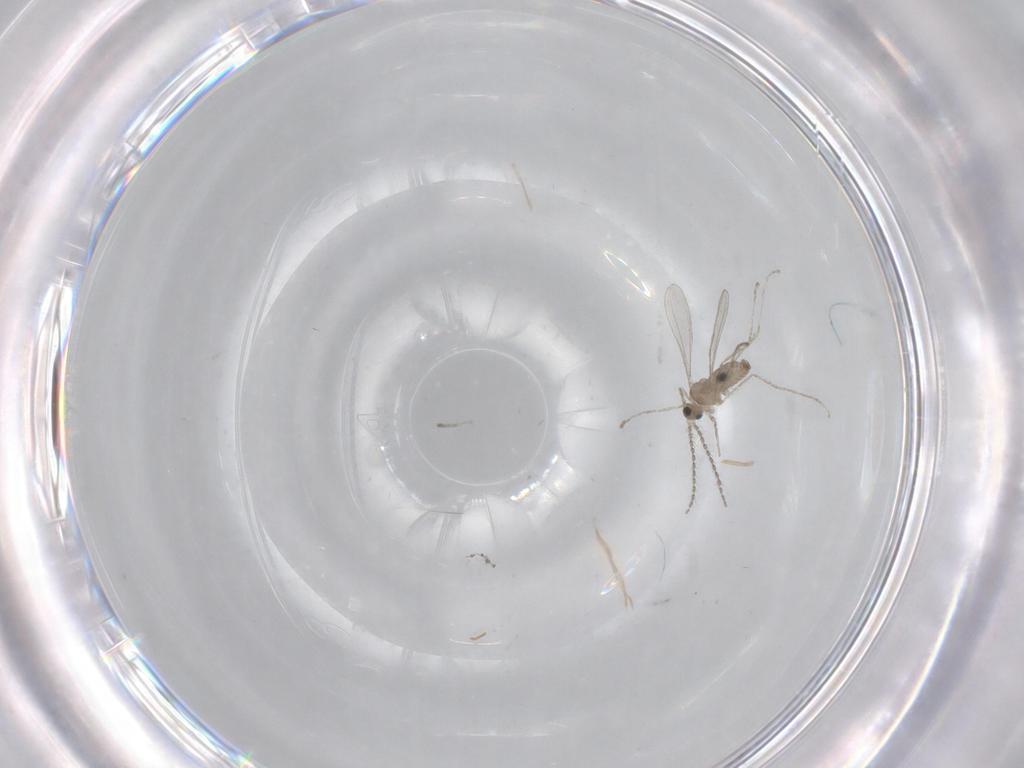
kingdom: Animalia
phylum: Arthropoda
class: Insecta
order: Diptera
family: Cecidomyiidae
